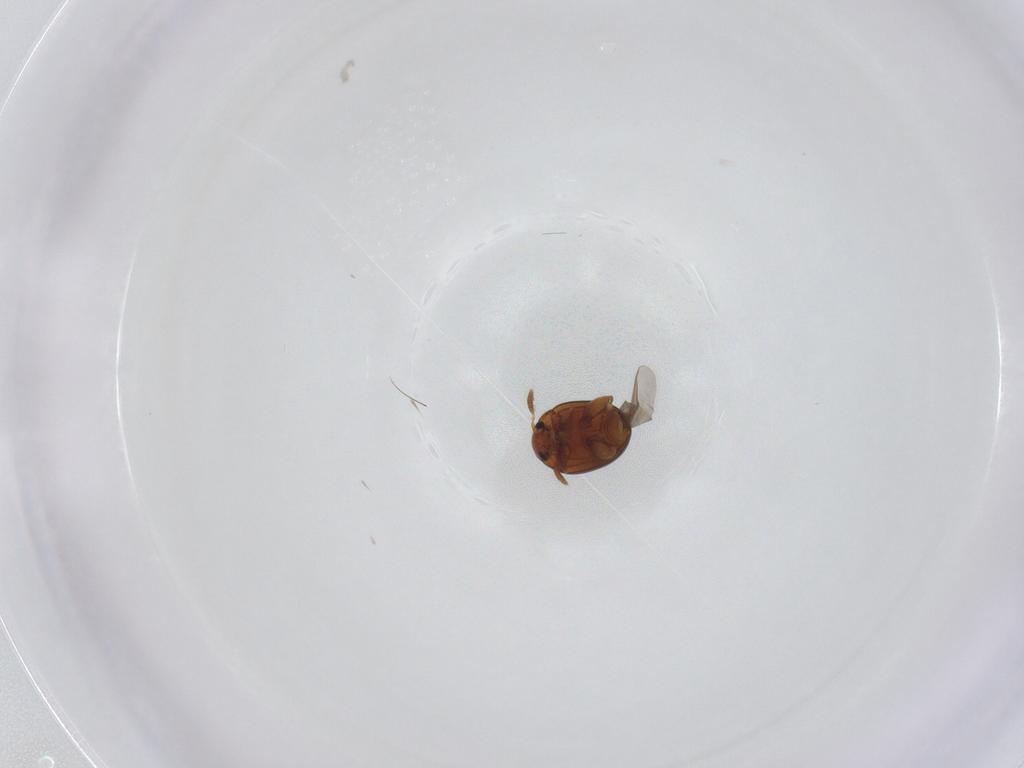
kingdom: Animalia
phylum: Arthropoda
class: Insecta
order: Coleoptera
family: Chrysomelidae
